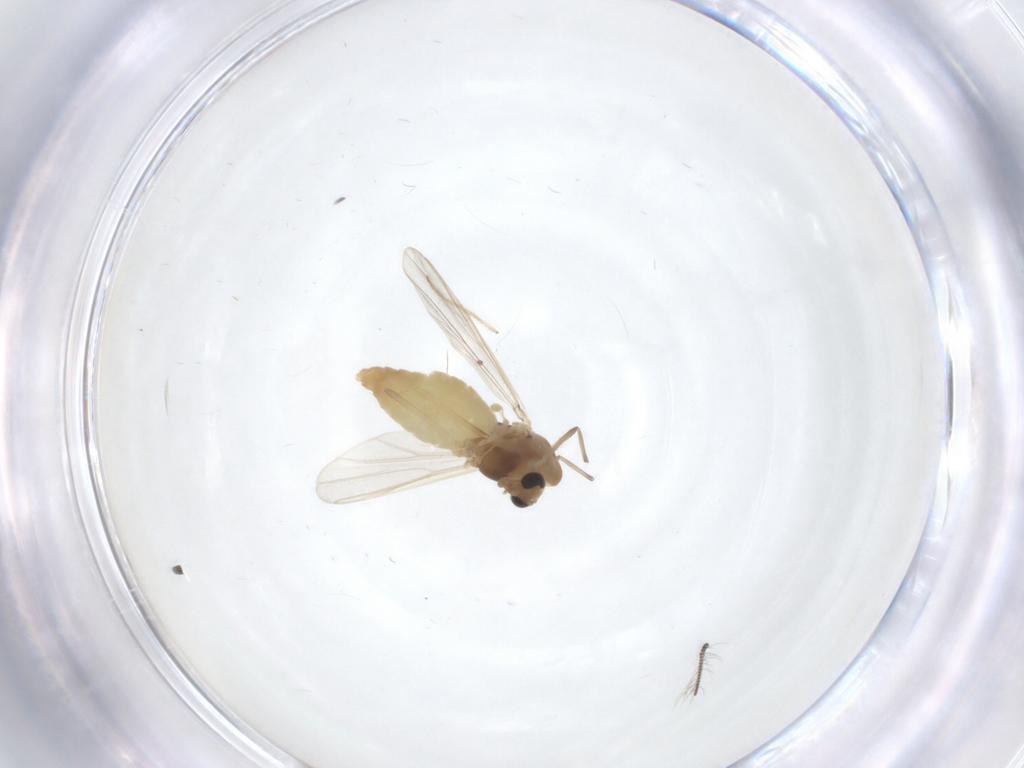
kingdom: Animalia
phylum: Arthropoda
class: Insecta
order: Diptera
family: Chironomidae
